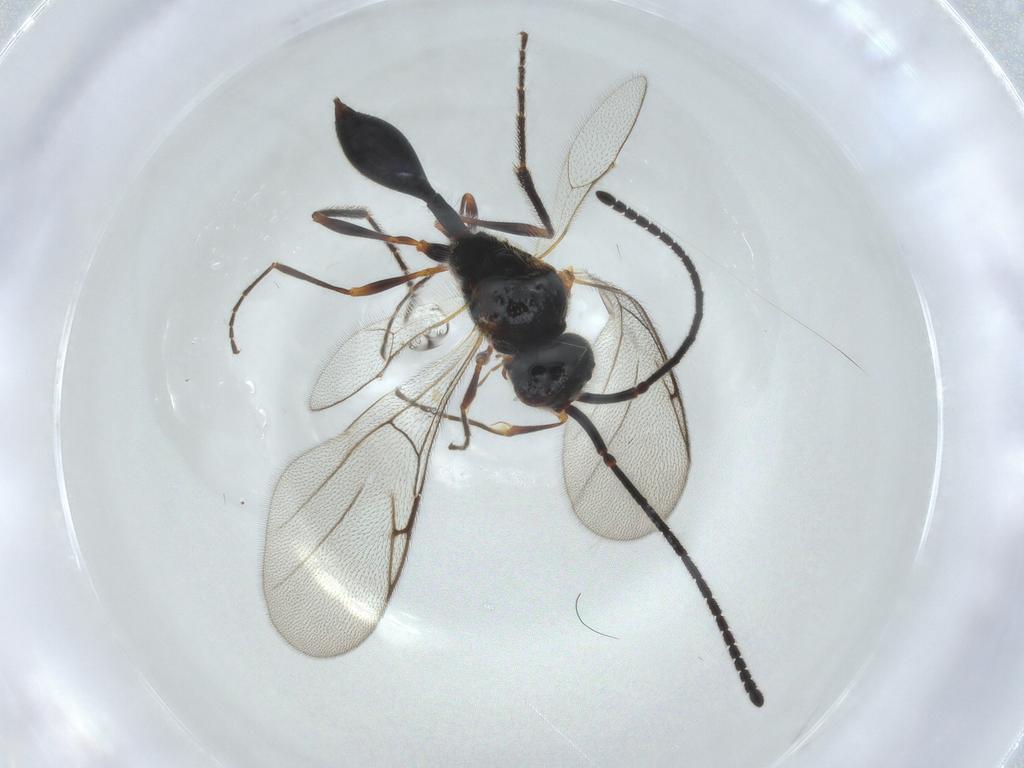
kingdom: Animalia
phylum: Arthropoda
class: Insecta
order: Hymenoptera
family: Diapriidae
